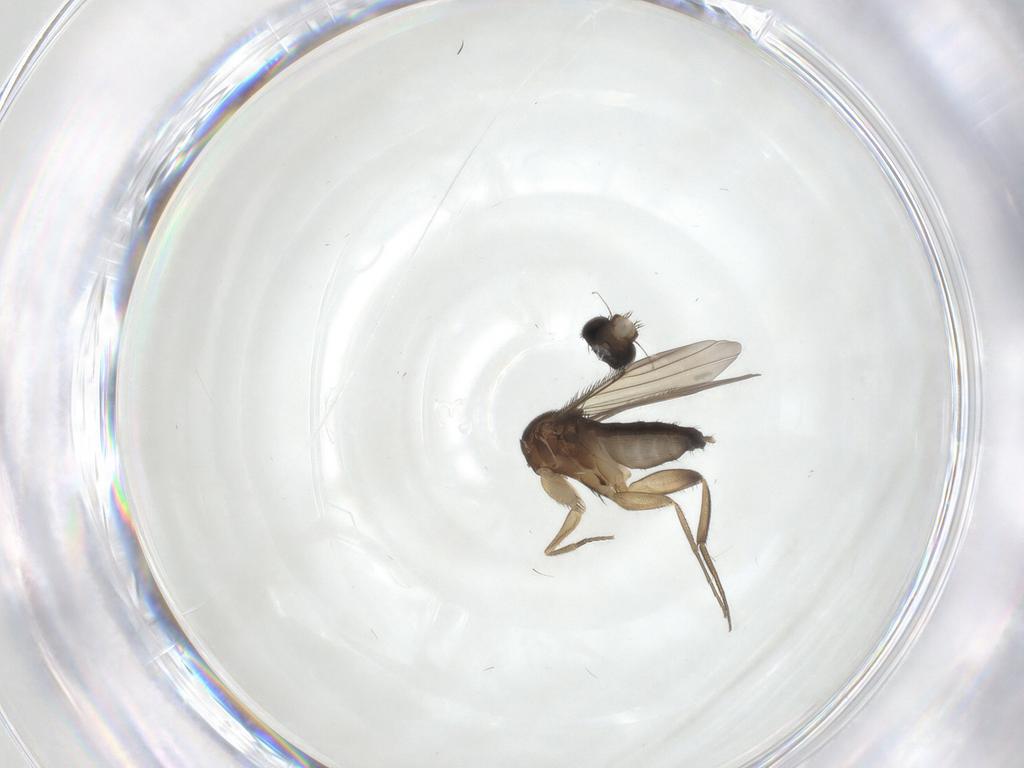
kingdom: Animalia
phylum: Arthropoda
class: Insecta
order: Diptera
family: Phoridae
